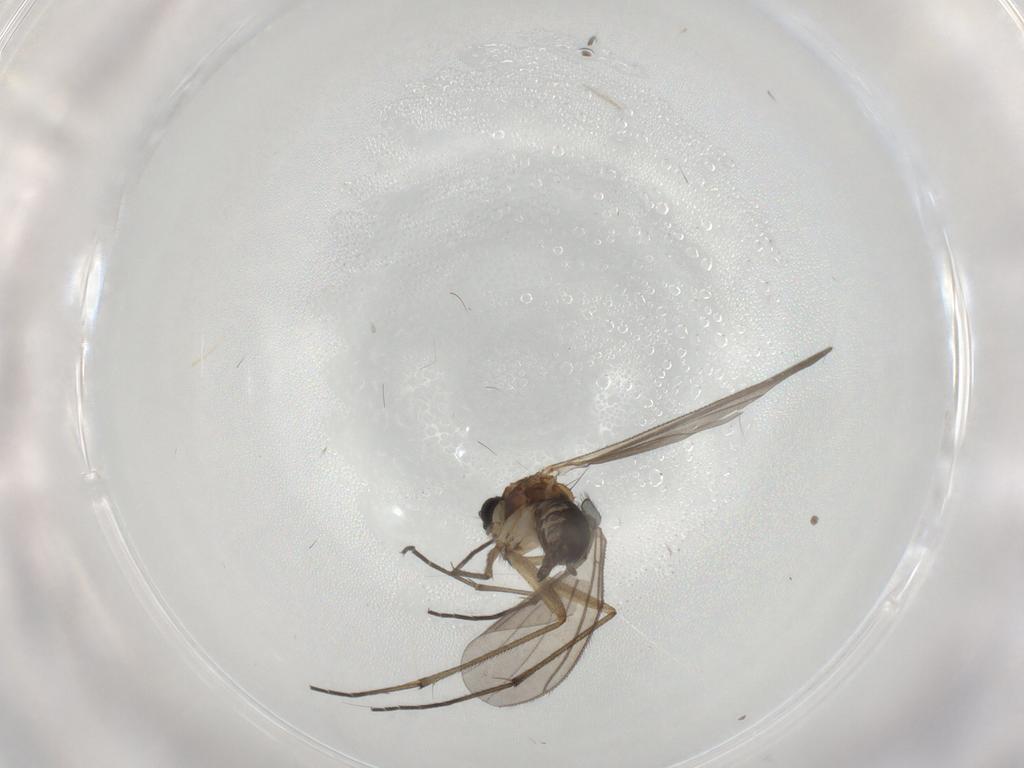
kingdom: Animalia
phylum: Arthropoda
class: Insecta
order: Diptera
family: Sciaridae
